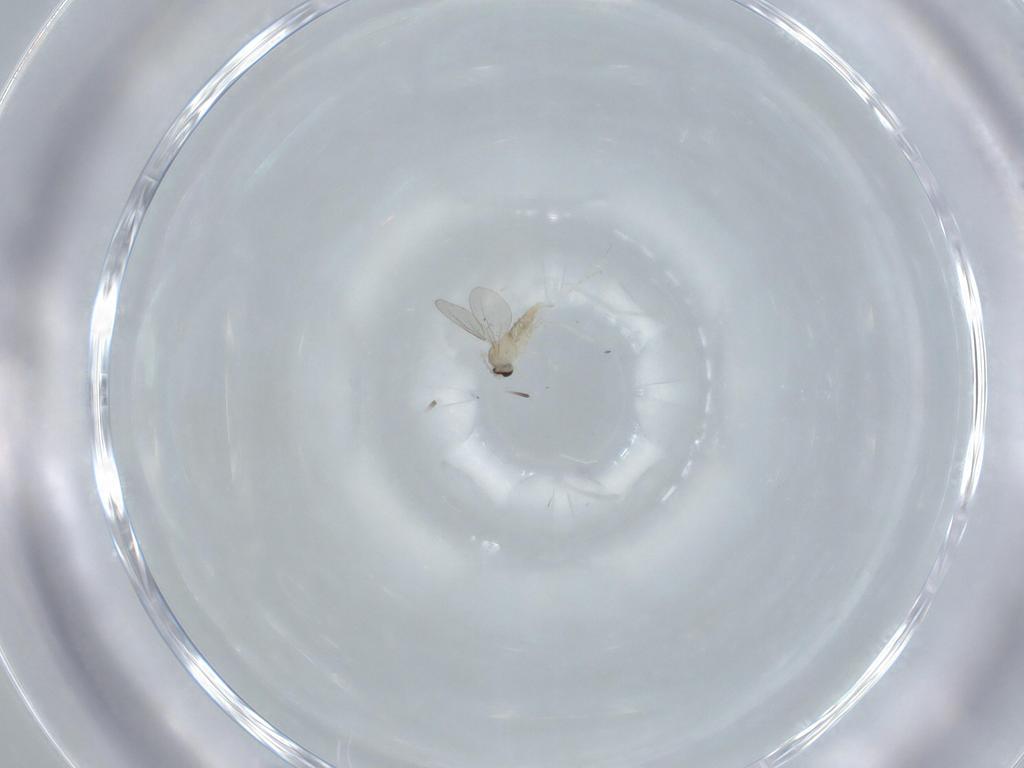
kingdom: Animalia
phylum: Arthropoda
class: Insecta
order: Diptera
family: Cecidomyiidae
